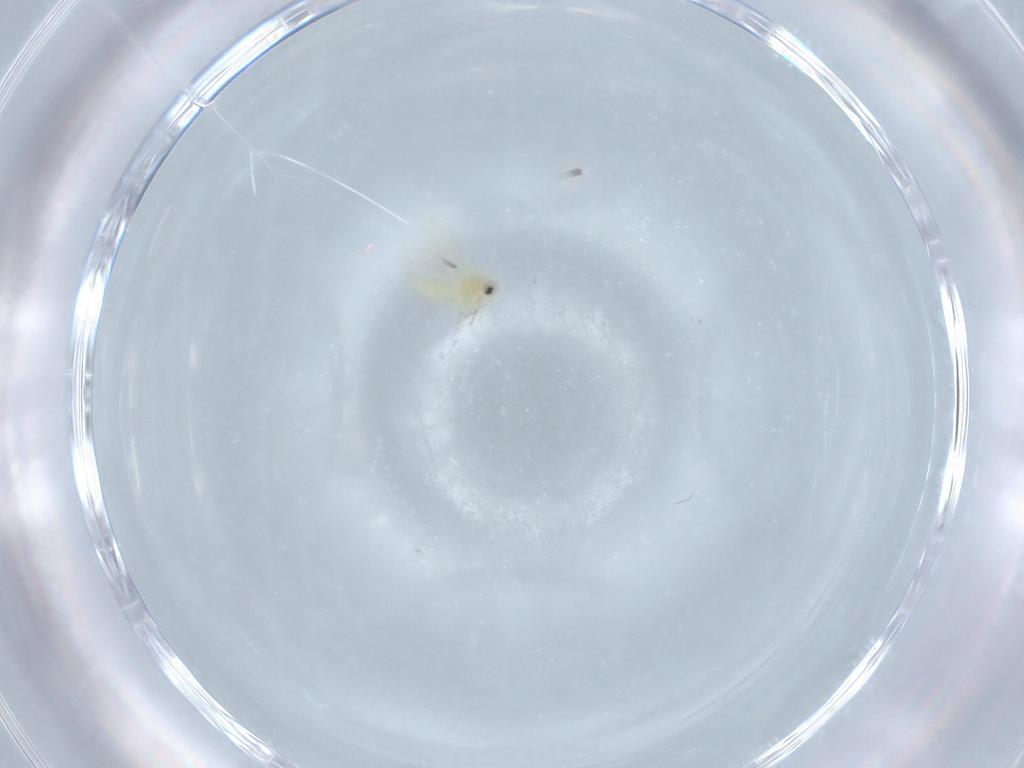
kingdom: Animalia
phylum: Arthropoda
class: Insecta
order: Hemiptera
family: Aleyrodidae
